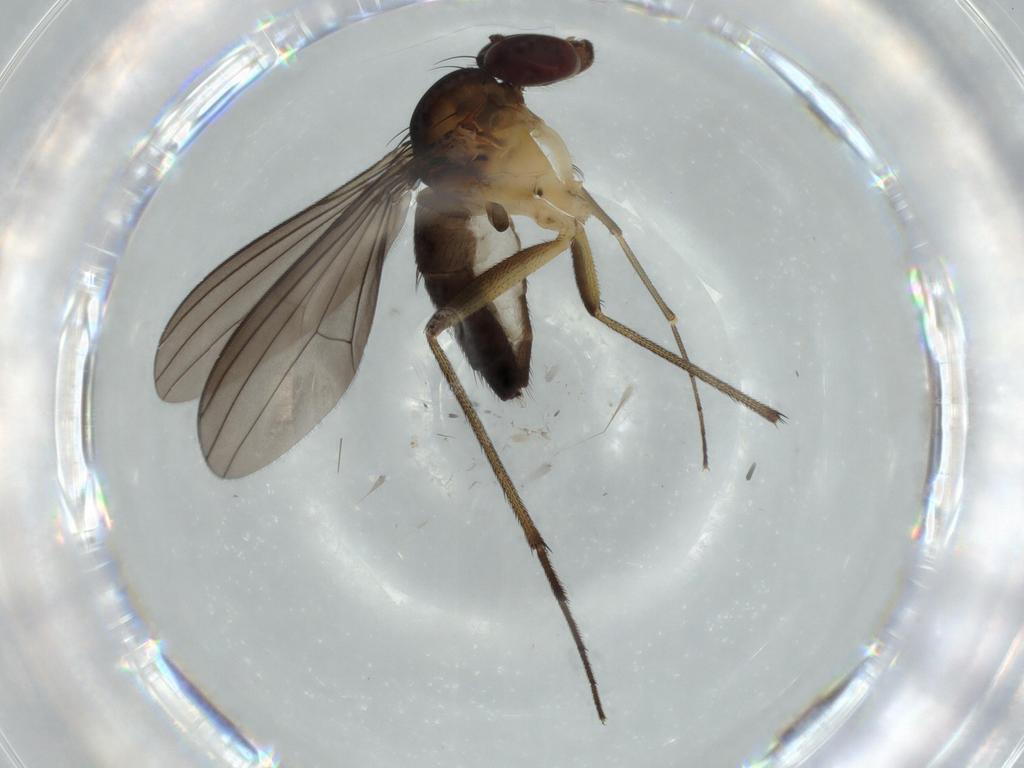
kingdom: Animalia
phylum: Arthropoda
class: Insecta
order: Diptera
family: Dolichopodidae
